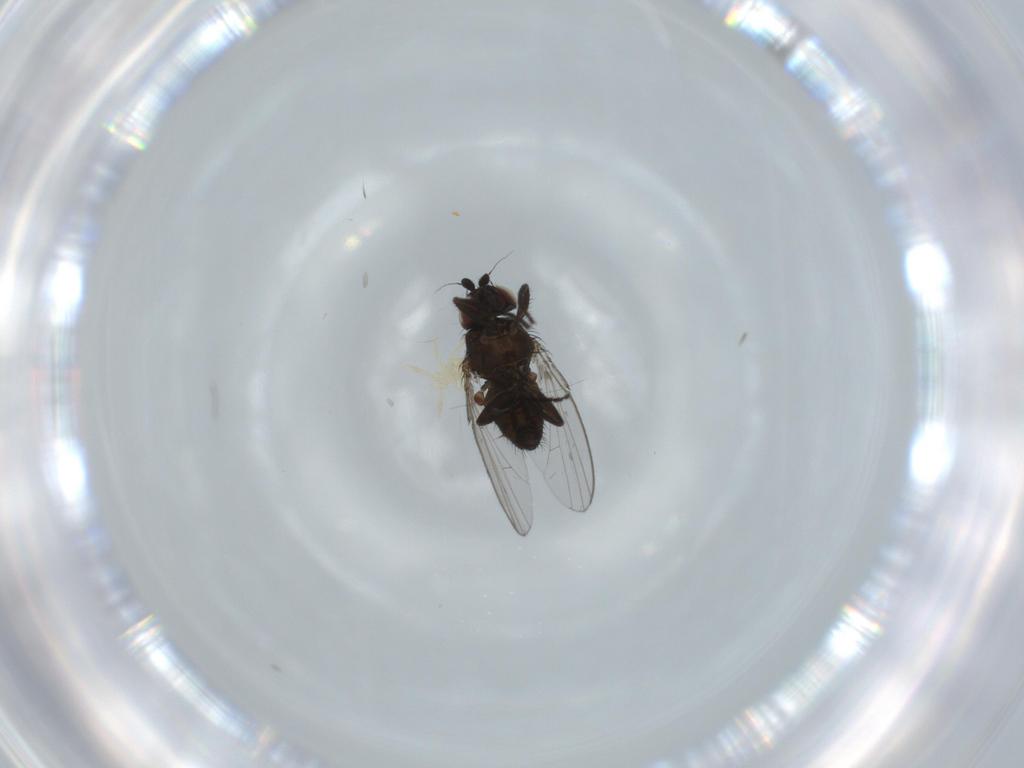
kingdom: Animalia
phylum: Arthropoda
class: Insecta
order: Diptera
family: Milichiidae
